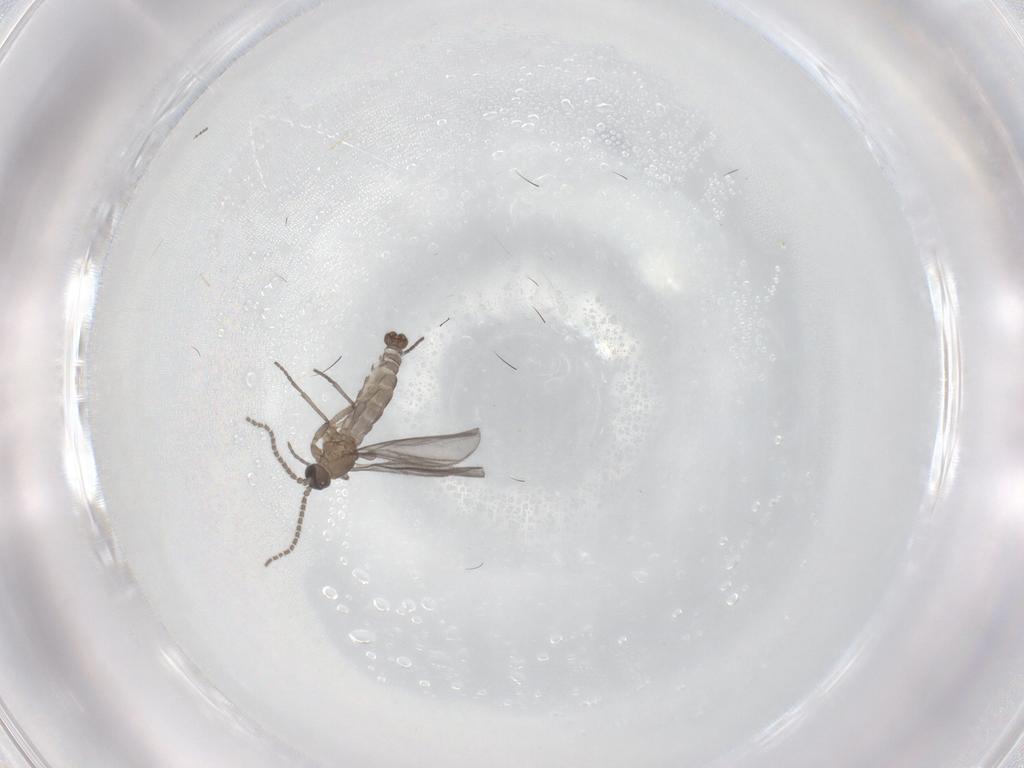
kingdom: Animalia
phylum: Arthropoda
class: Insecta
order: Diptera
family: Sciaridae
